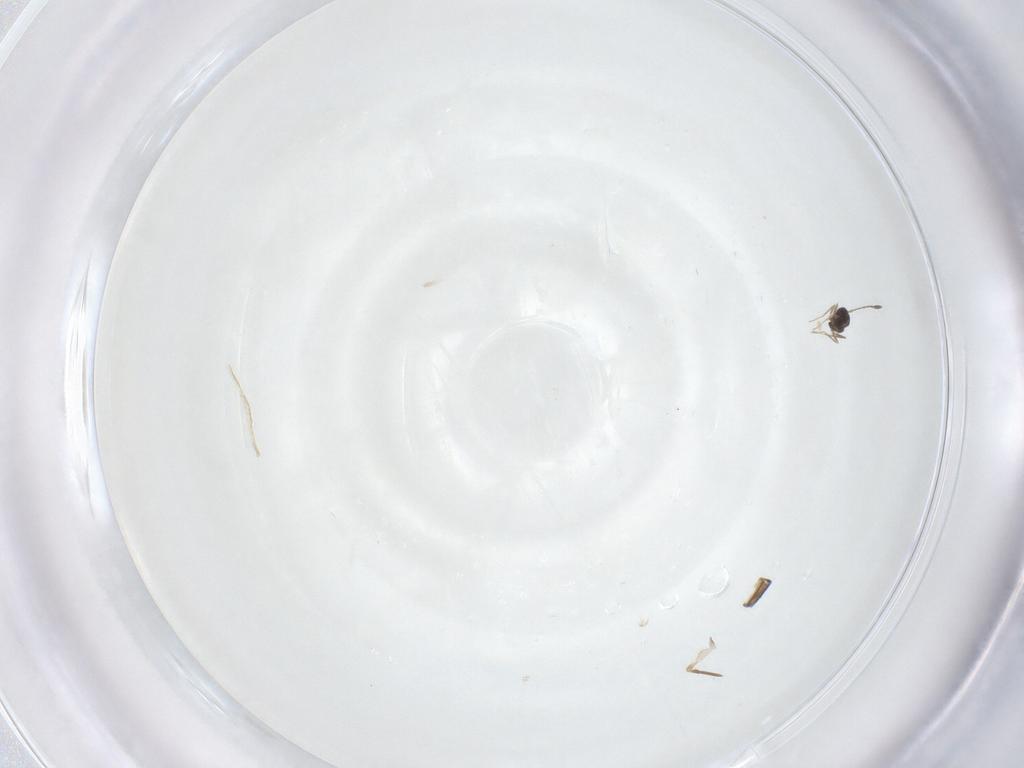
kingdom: Animalia
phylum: Arthropoda
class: Insecta
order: Hymenoptera
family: Ichneumonidae
